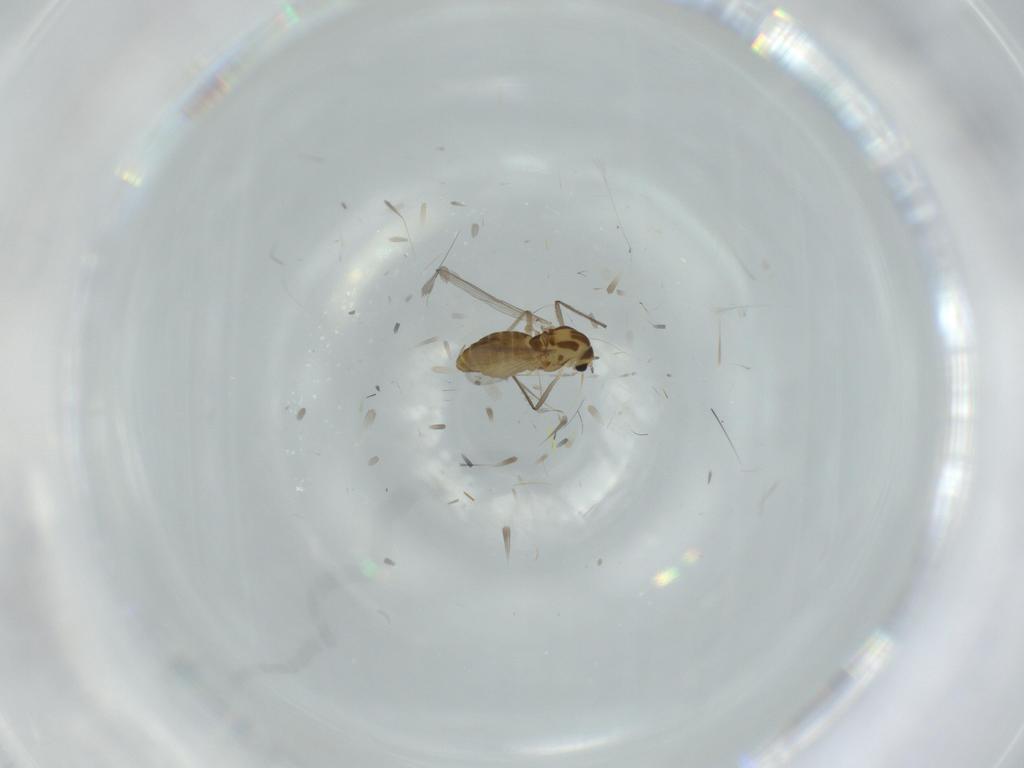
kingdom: Animalia
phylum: Arthropoda
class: Insecta
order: Diptera
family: Chironomidae
